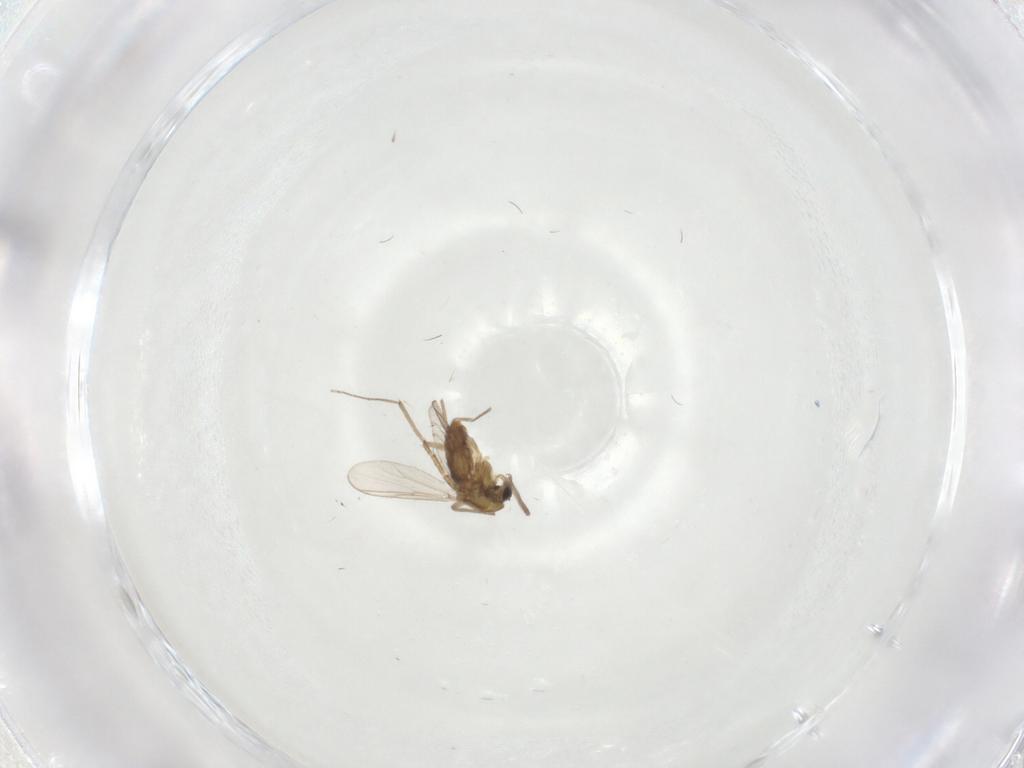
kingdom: Animalia
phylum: Arthropoda
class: Insecta
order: Diptera
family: Chironomidae
